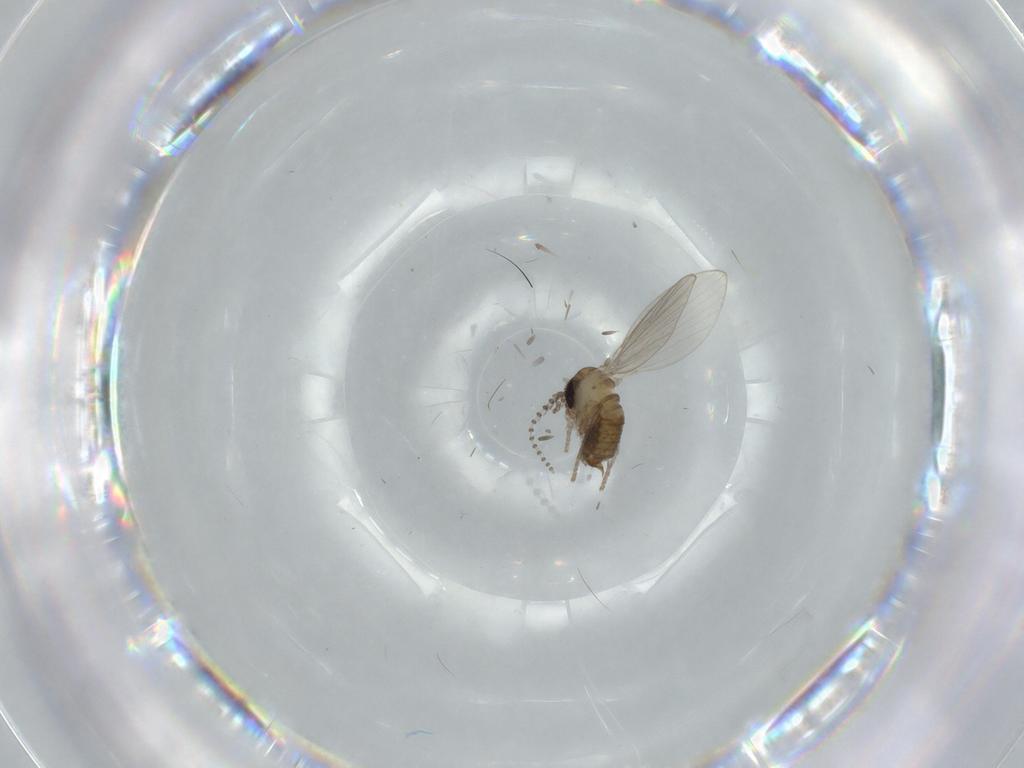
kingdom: Animalia
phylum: Arthropoda
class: Insecta
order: Diptera
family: Psychodidae
